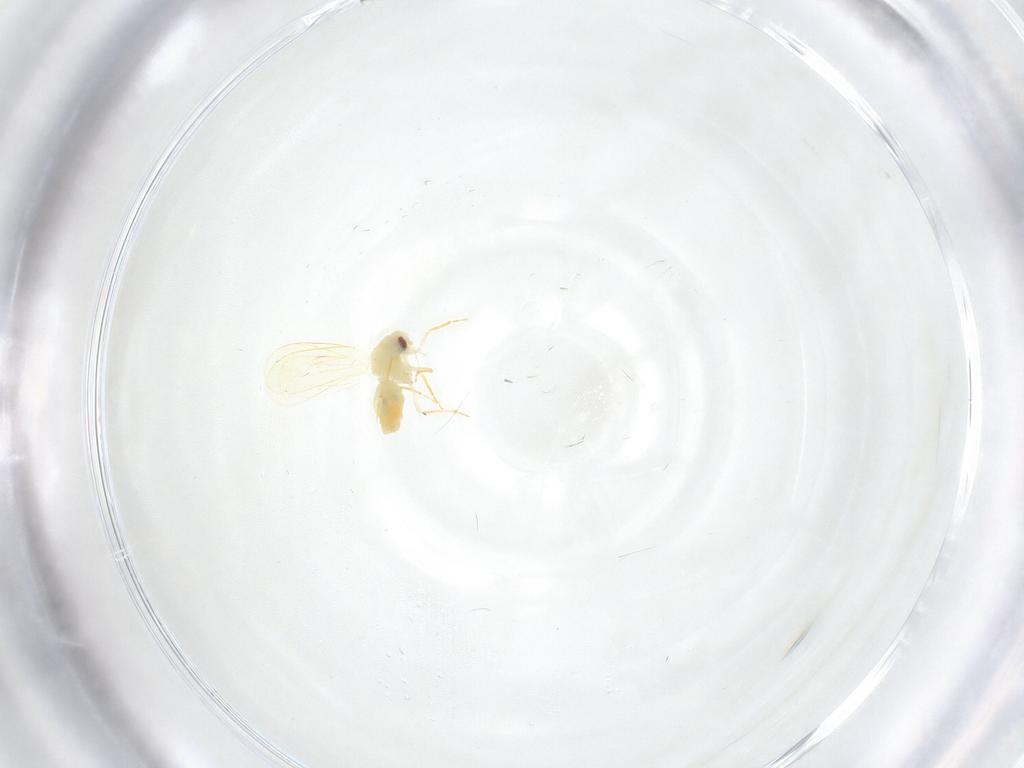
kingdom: Animalia
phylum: Arthropoda
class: Insecta
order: Hemiptera
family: Aleyrodidae
